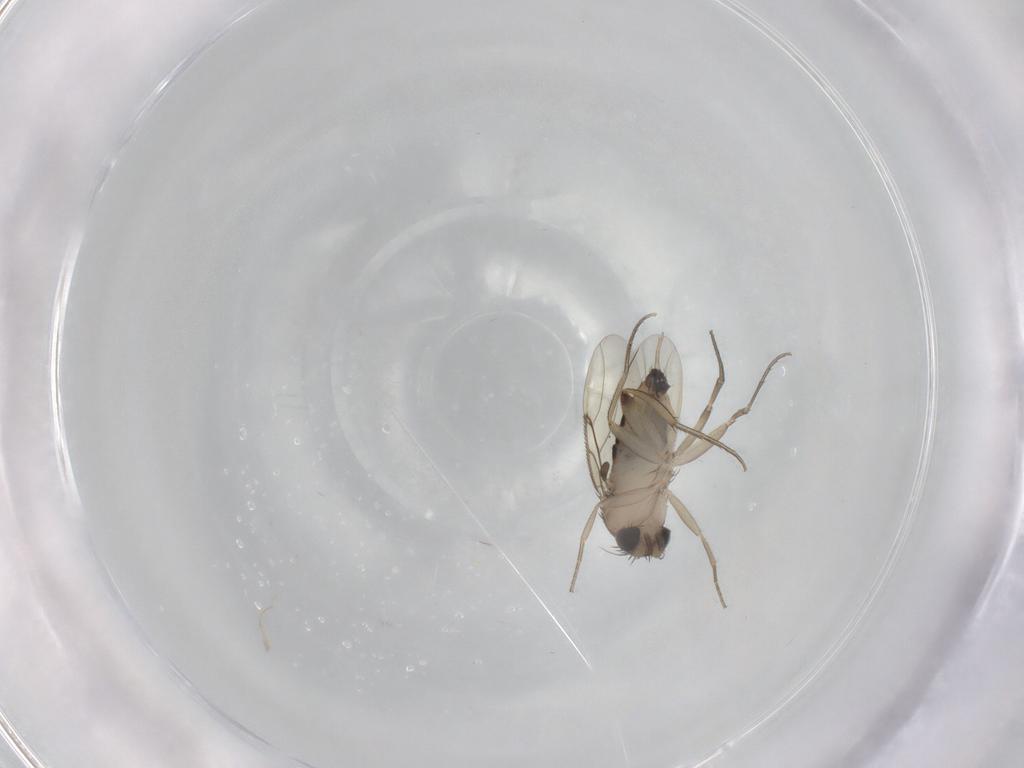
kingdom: Animalia
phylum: Arthropoda
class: Insecta
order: Diptera
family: Phoridae
